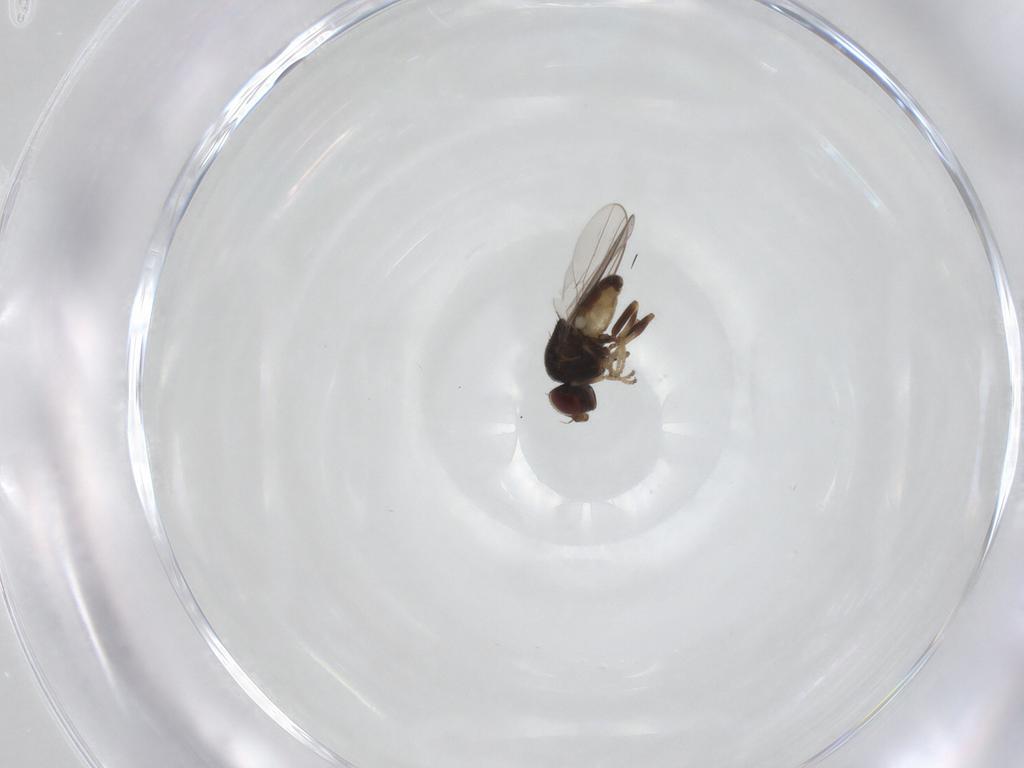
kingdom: Animalia
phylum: Arthropoda
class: Insecta
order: Diptera
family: Chloropidae
